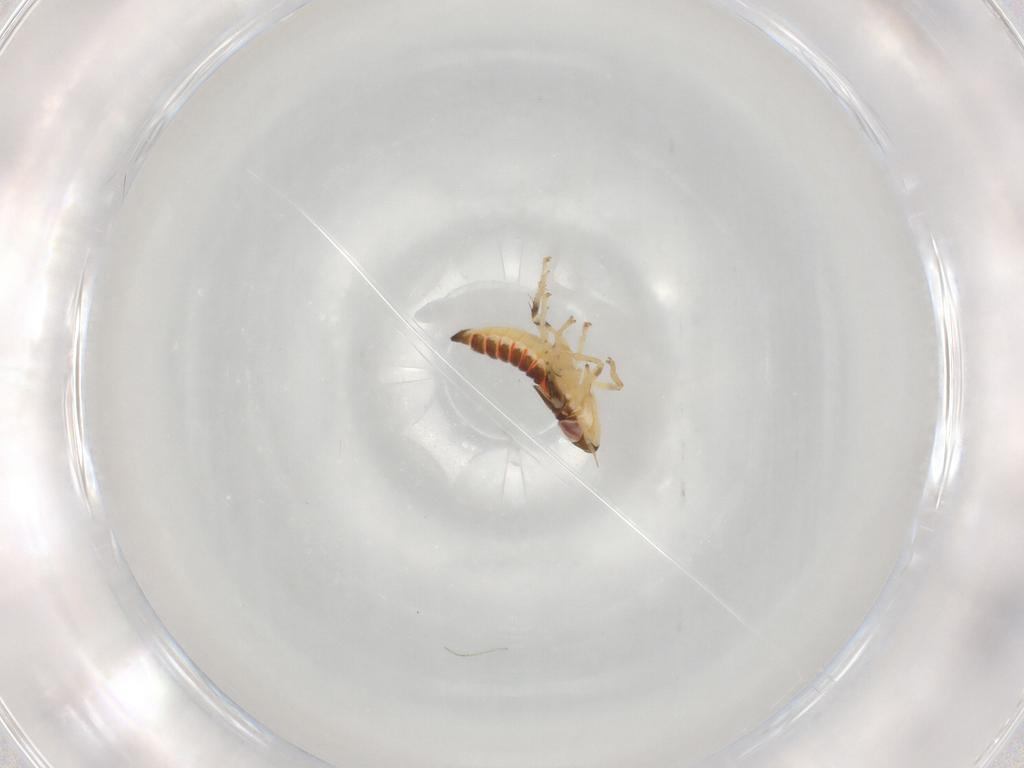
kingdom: Animalia
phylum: Arthropoda
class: Insecta
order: Hemiptera
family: Cicadellidae
